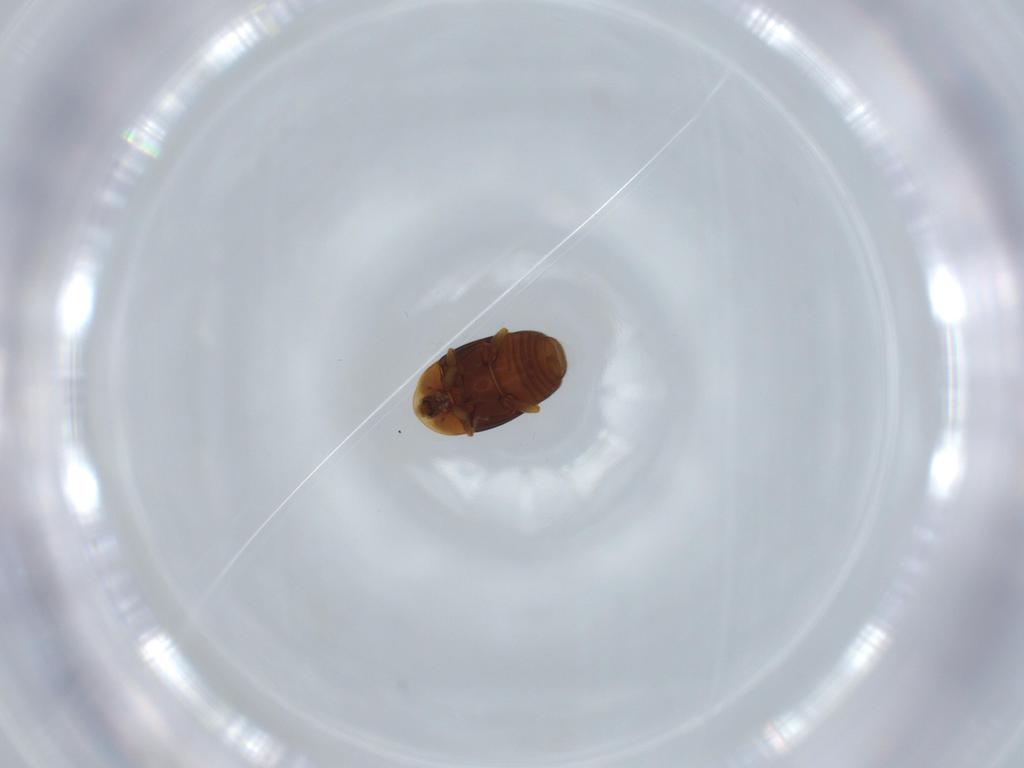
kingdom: Animalia
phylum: Arthropoda
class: Insecta
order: Coleoptera
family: Corylophidae
